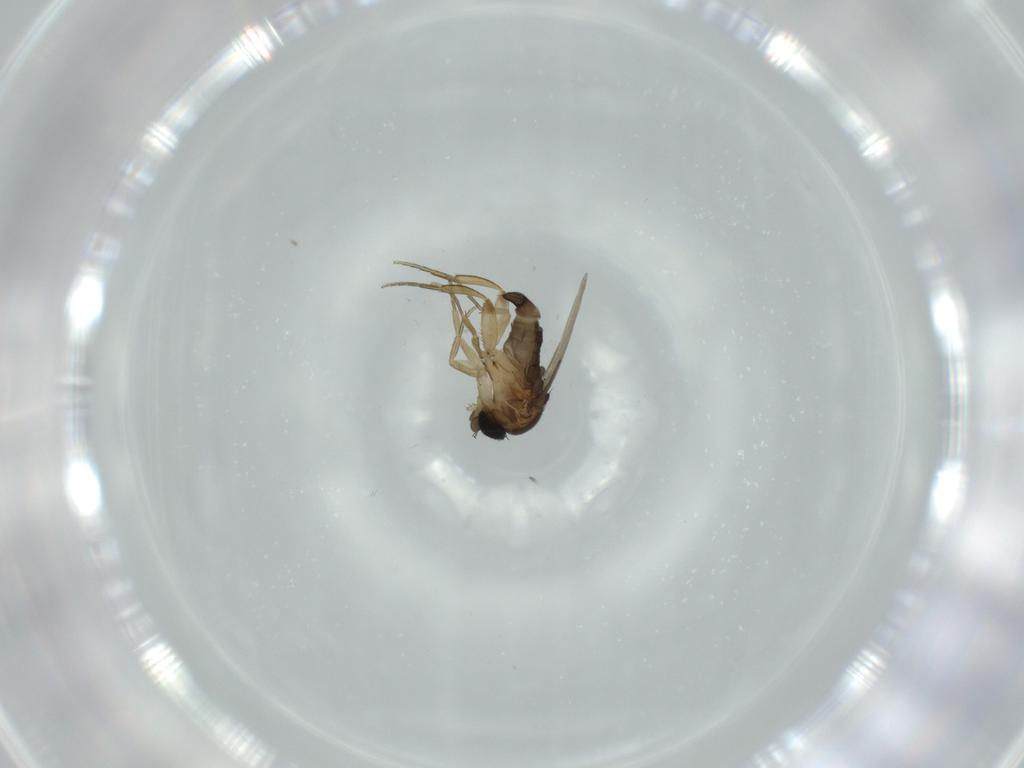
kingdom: Animalia
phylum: Arthropoda
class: Insecta
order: Diptera
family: Phoridae
